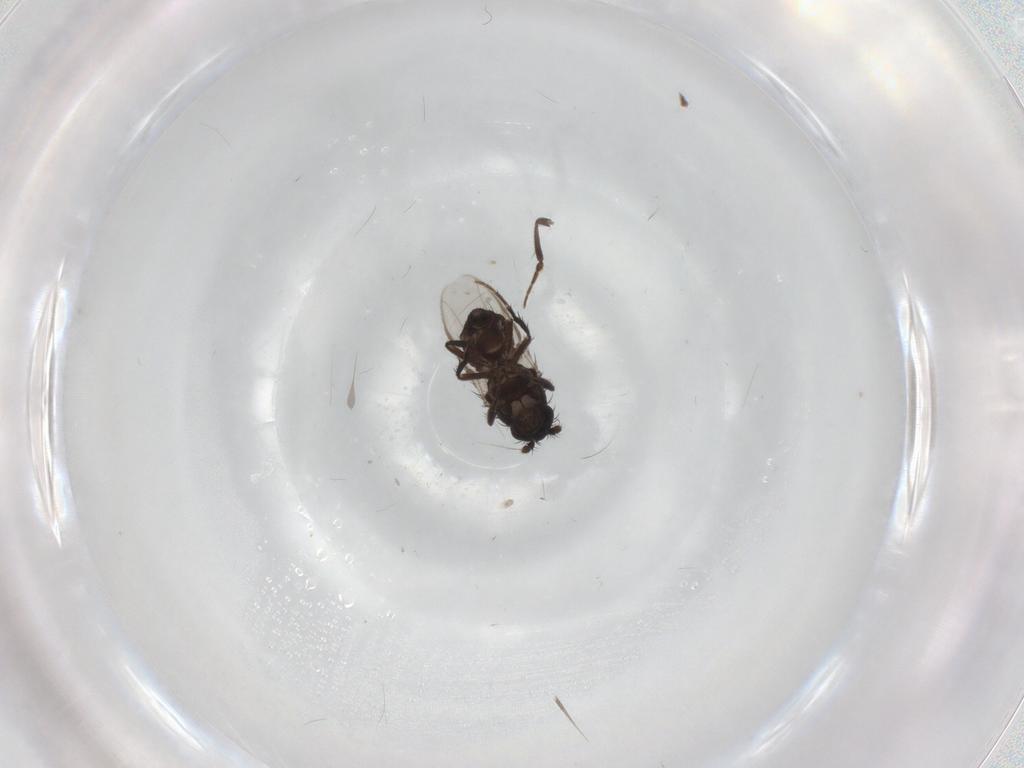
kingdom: Animalia
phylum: Arthropoda
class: Insecta
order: Diptera
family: Sphaeroceridae
